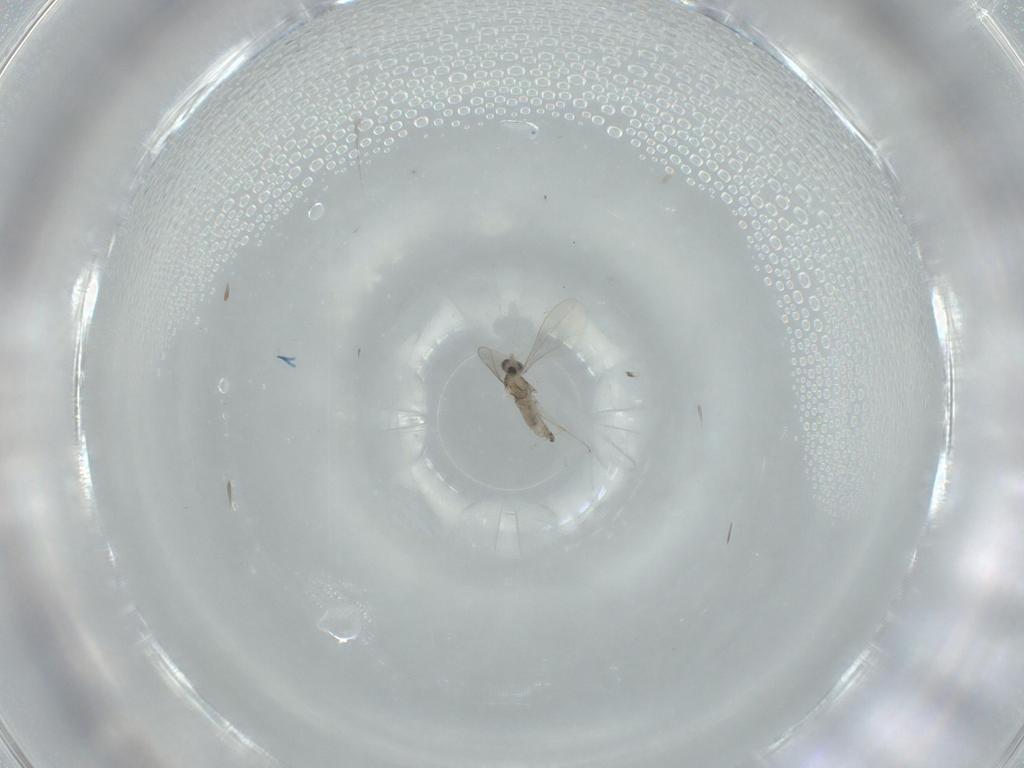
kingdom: Animalia
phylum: Arthropoda
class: Insecta
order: Diptera
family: Cecidomyiidae
